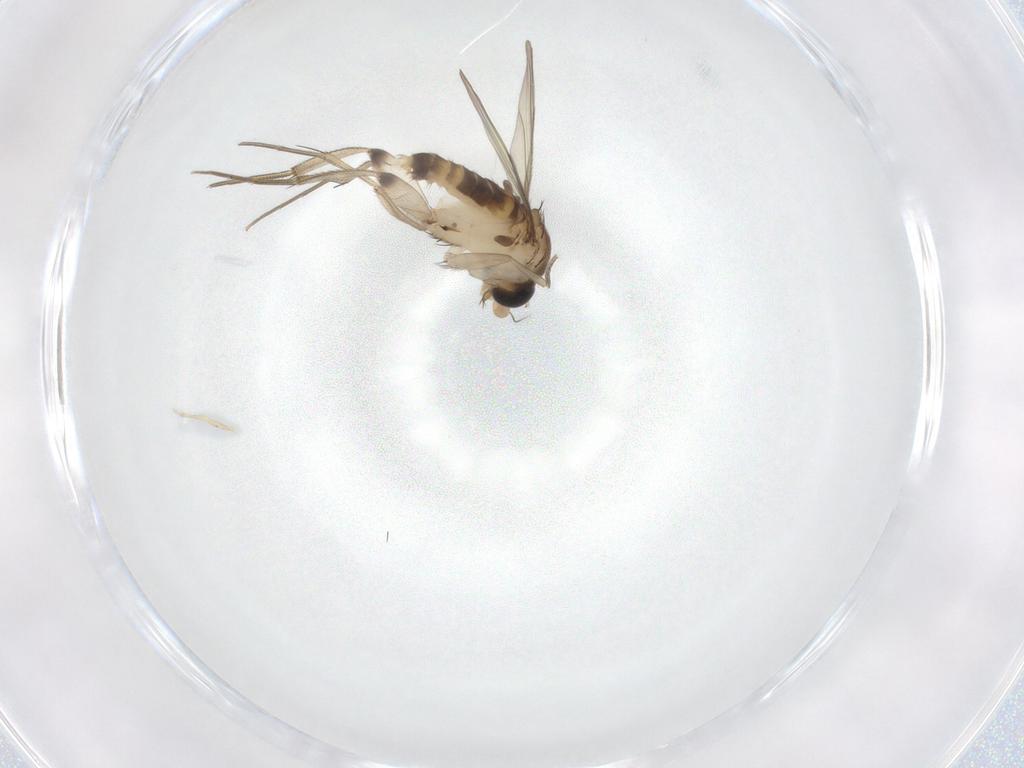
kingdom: Animalia
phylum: Arthropoda
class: Insecta
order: Diptera
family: Phoridae
